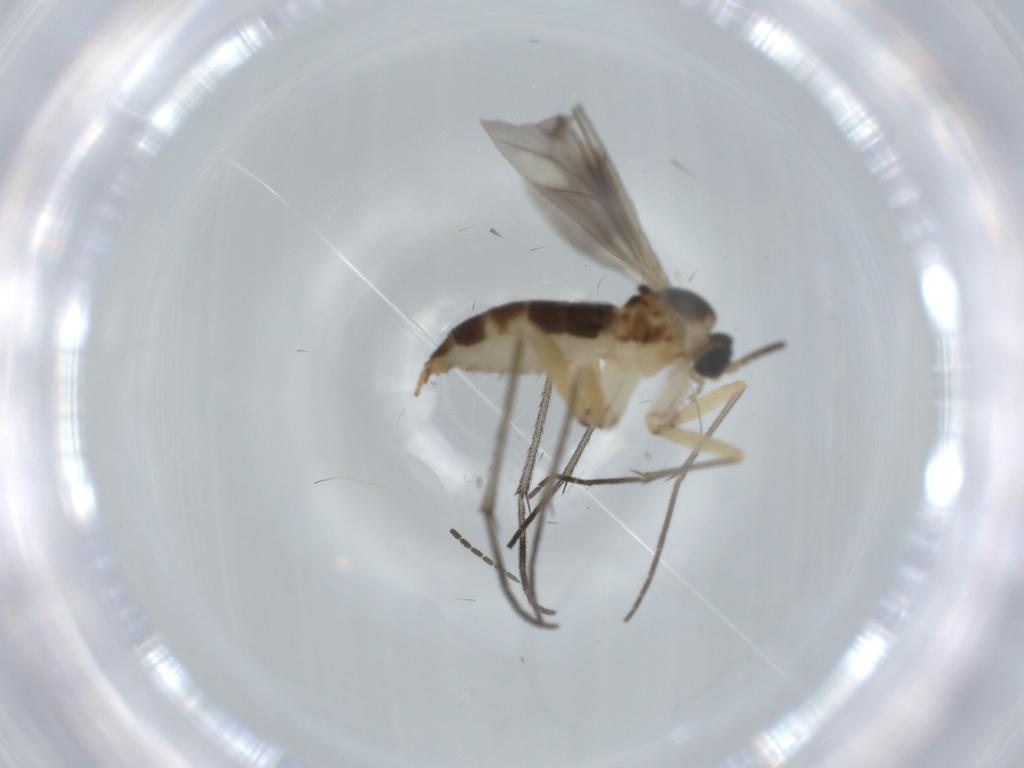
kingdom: Animalia
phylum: Arthropoda
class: Insecta
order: Diptera
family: Sciaridae
